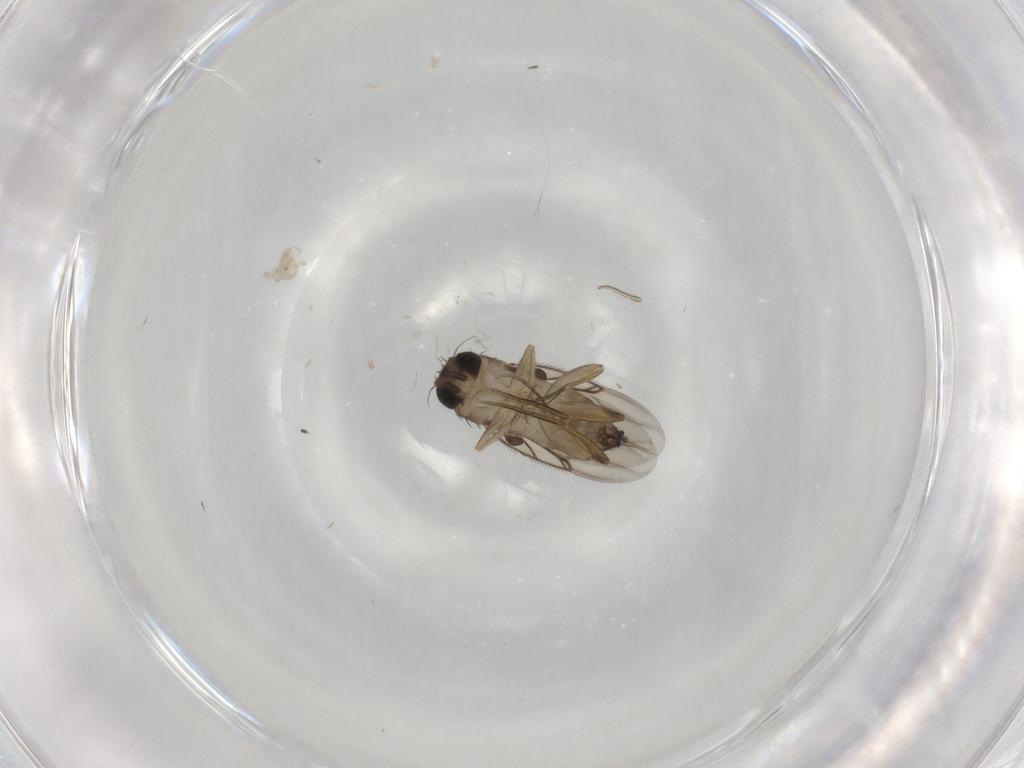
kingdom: Animalia
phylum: Arthropoda
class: Insecta
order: Diptera
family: Phoridae
